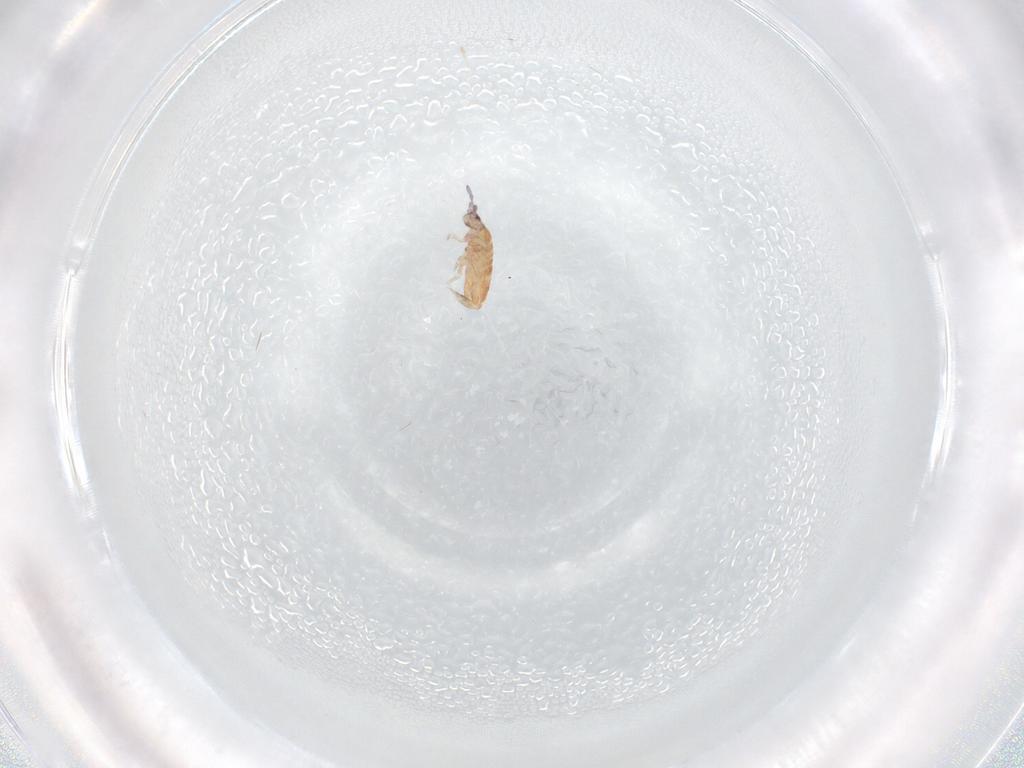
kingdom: Animalia
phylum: Arthropoda
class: Collembola
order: Entomobryomorpha
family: Entomobryidae
